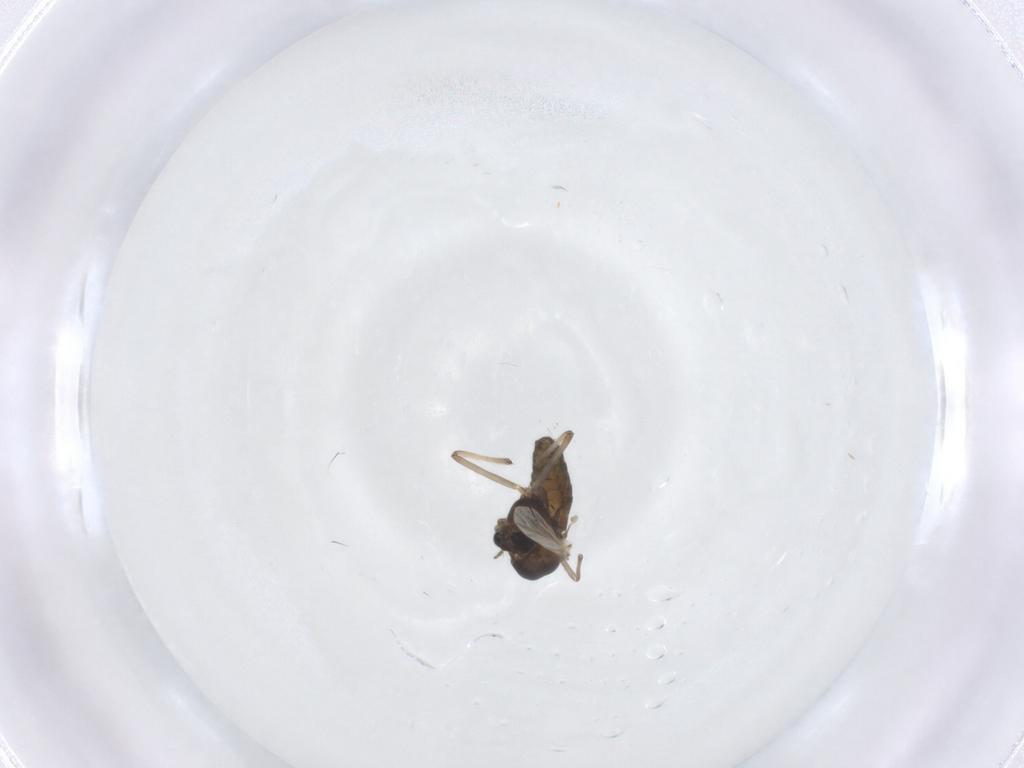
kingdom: Animalia
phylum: Arthropoda
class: Insecta
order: Diptera
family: Chironomidae
